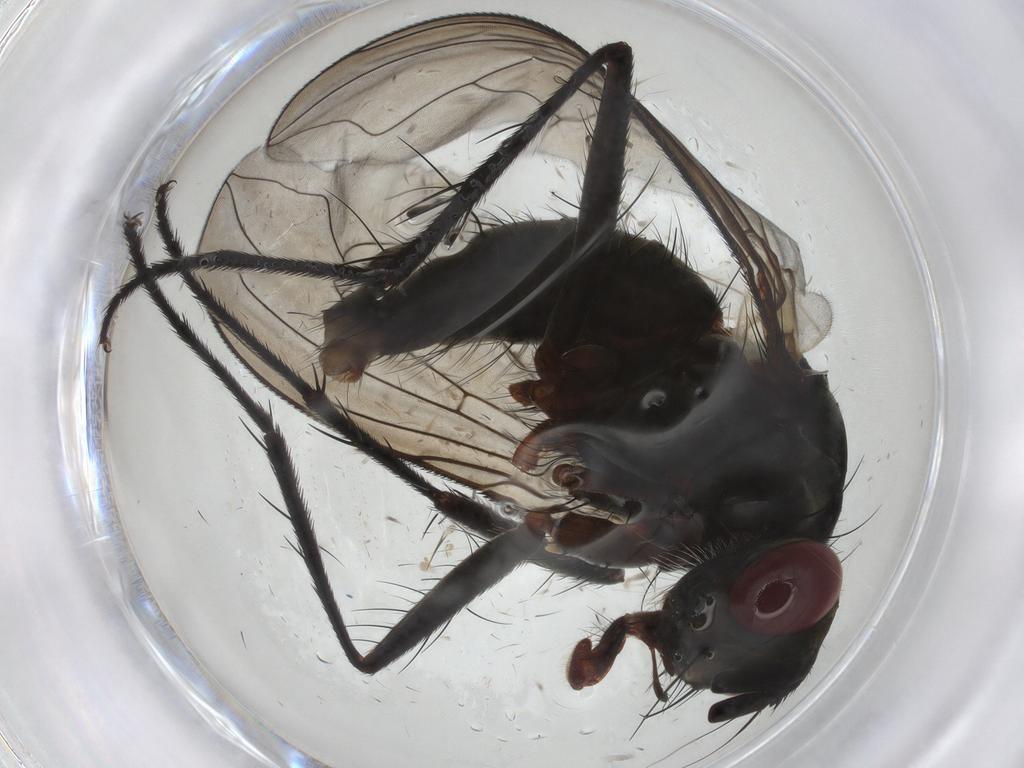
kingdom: Animalia
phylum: Arthropoda
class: Insecta
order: Diptera
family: Tachinidae
